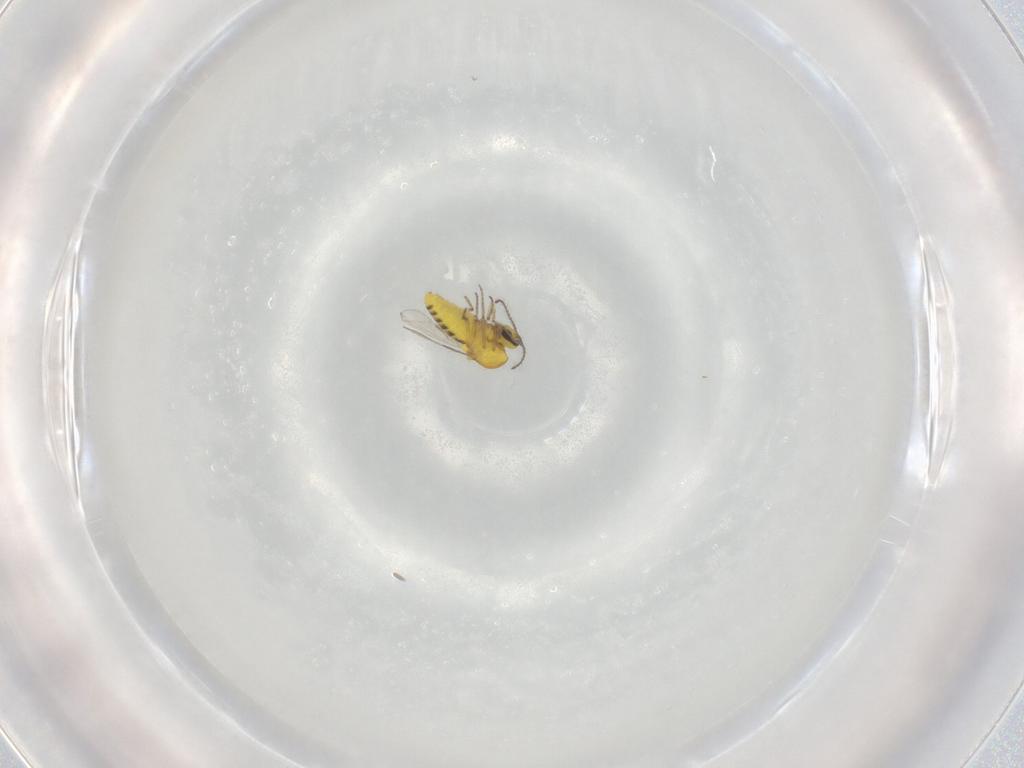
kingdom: Animalia
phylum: Arthropoda
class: Insecta
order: Diptera
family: Ceratopogonidae
